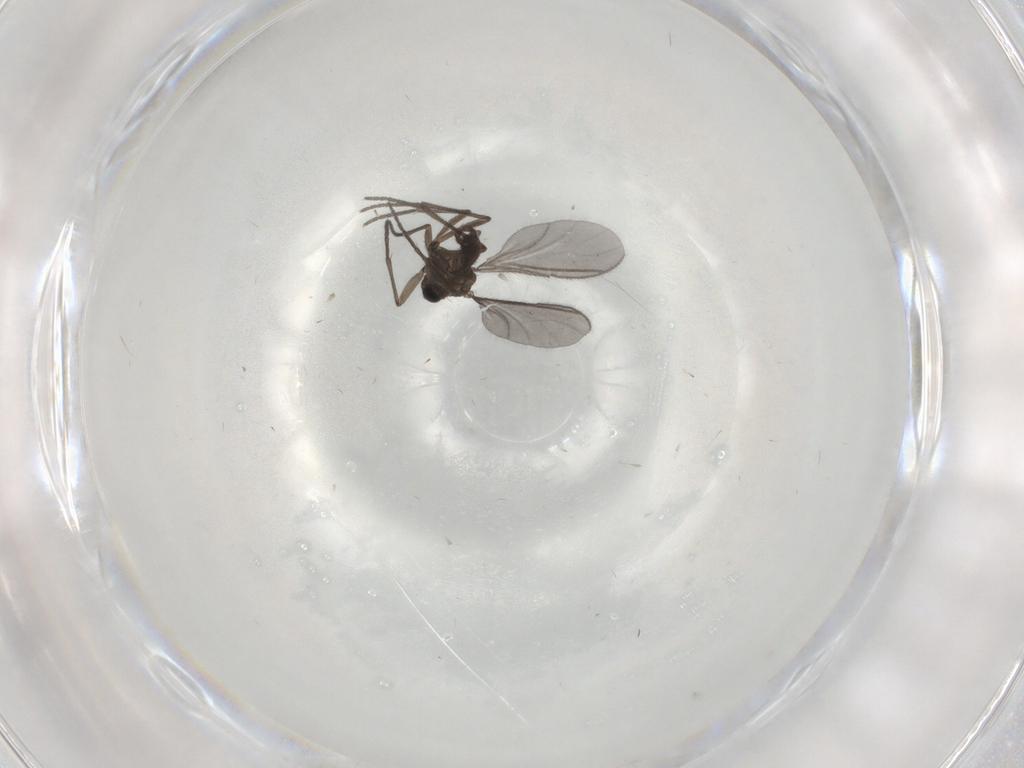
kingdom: Animalia
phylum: Arthropoda
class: Insecta
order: Diptera
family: Sciaridae
